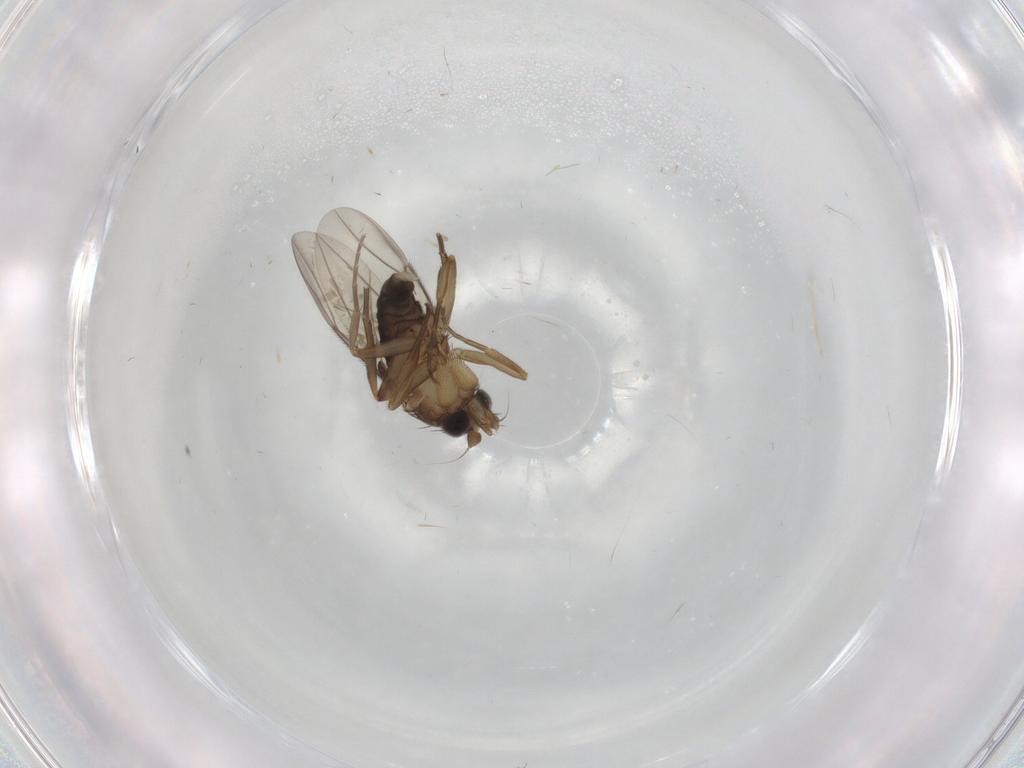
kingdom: Animalia
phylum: Arthropoda
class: Insecta
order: Diptera
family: Phoridae
